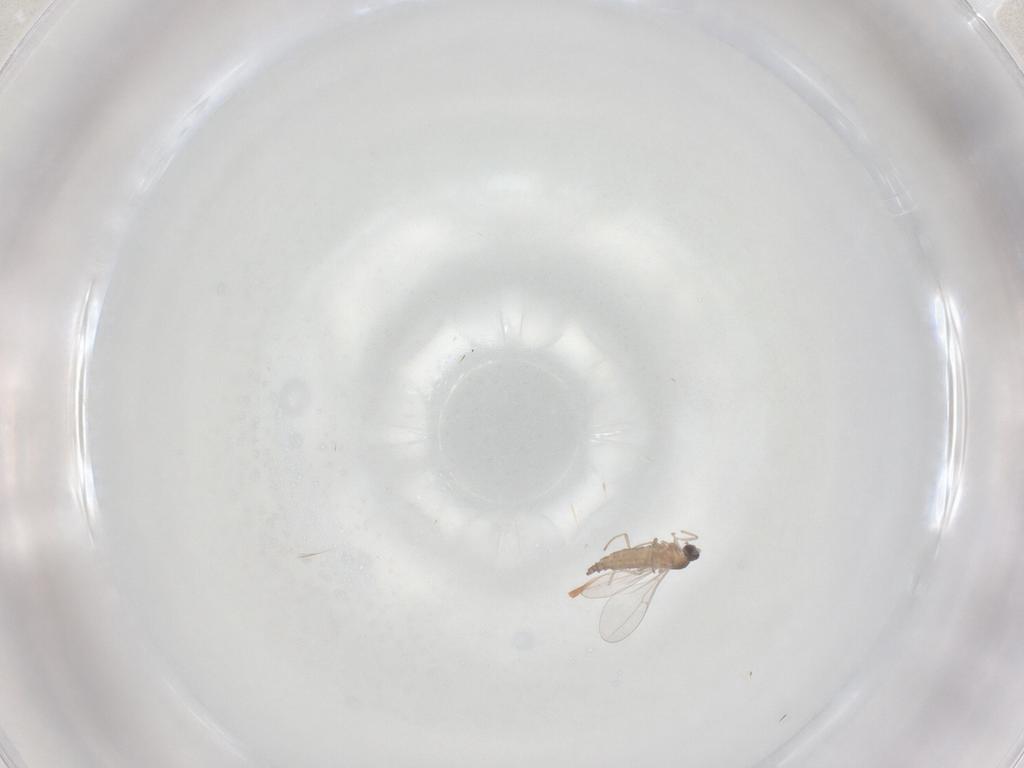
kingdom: Animalia
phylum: Arthropoda
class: Insecta
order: Diptera
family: Cecidomyiidae
